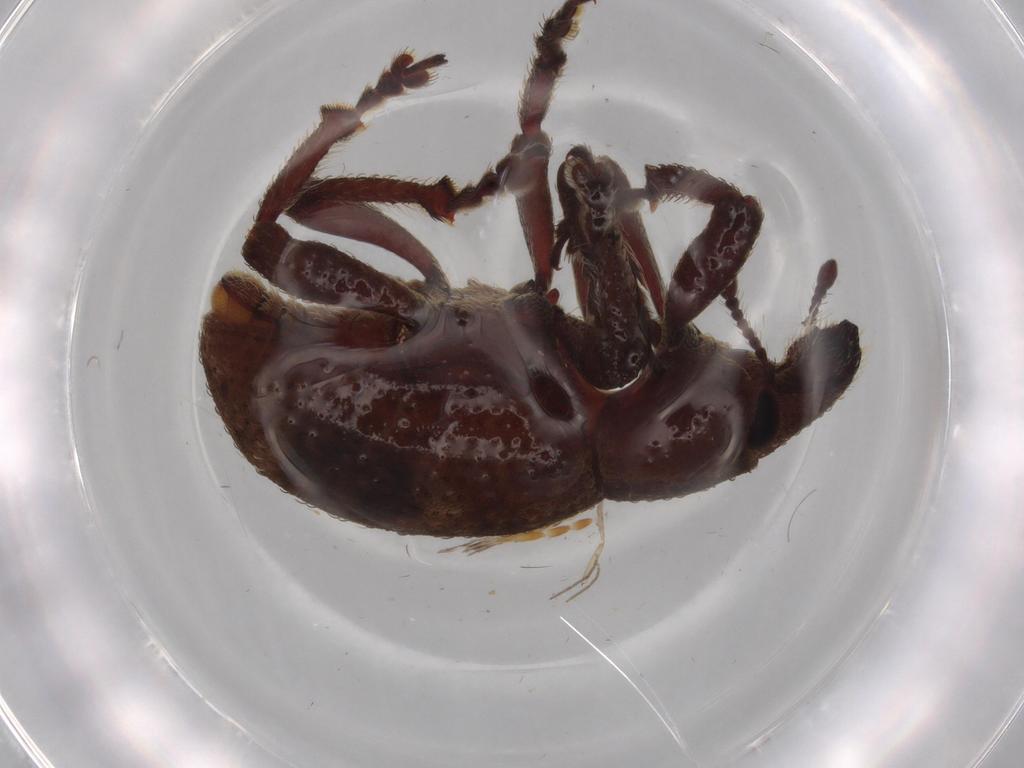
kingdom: Animalia
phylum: Arthropoda
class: Insecta
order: Coleoptera
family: Curculionidae
